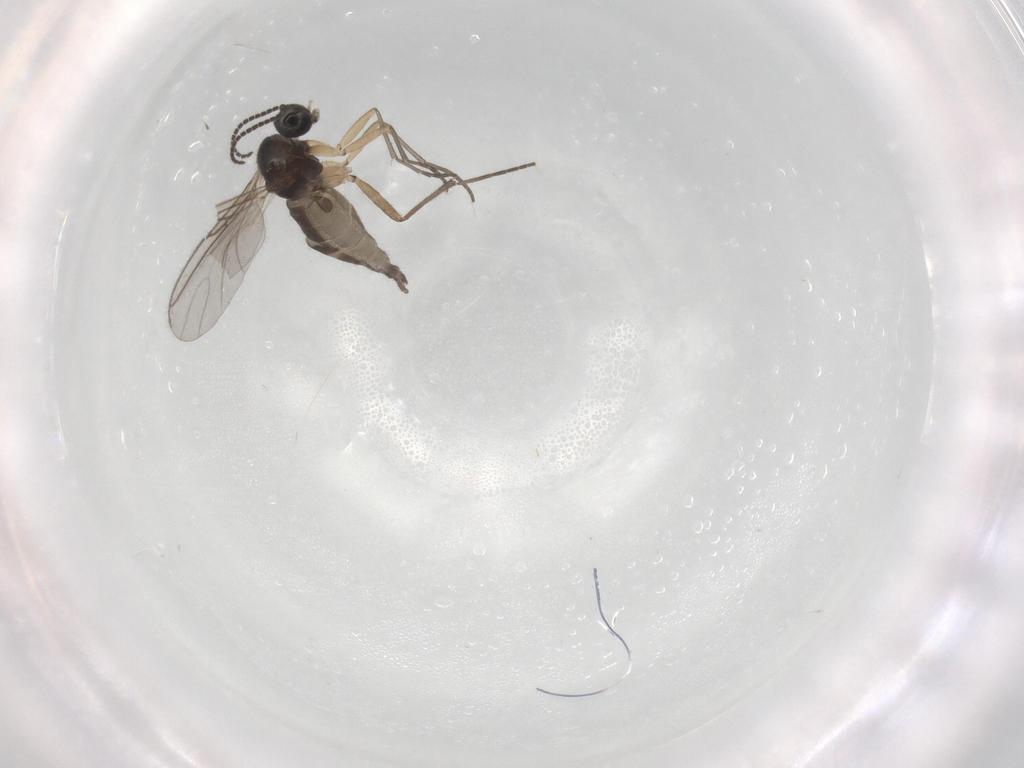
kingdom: Animalia
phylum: Arthropoda
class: Insecta
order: Diptera
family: Sciaridae
